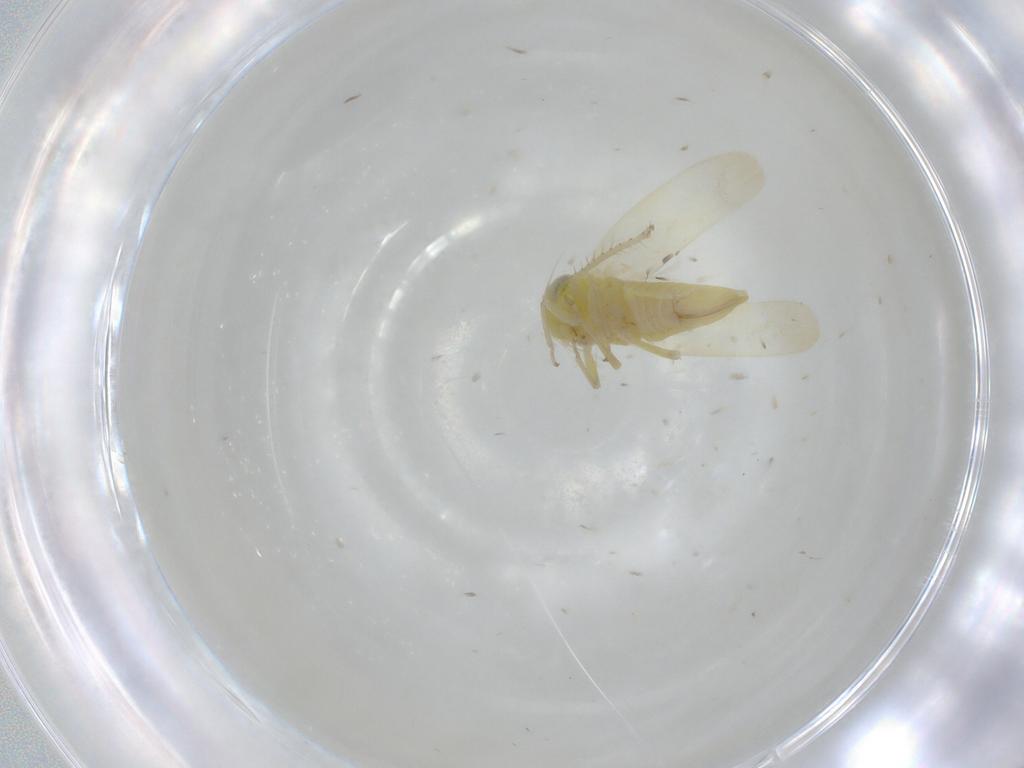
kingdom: Animalia
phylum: Arthropoda
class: Insecta
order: Hemiptera
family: Cicadellidae
